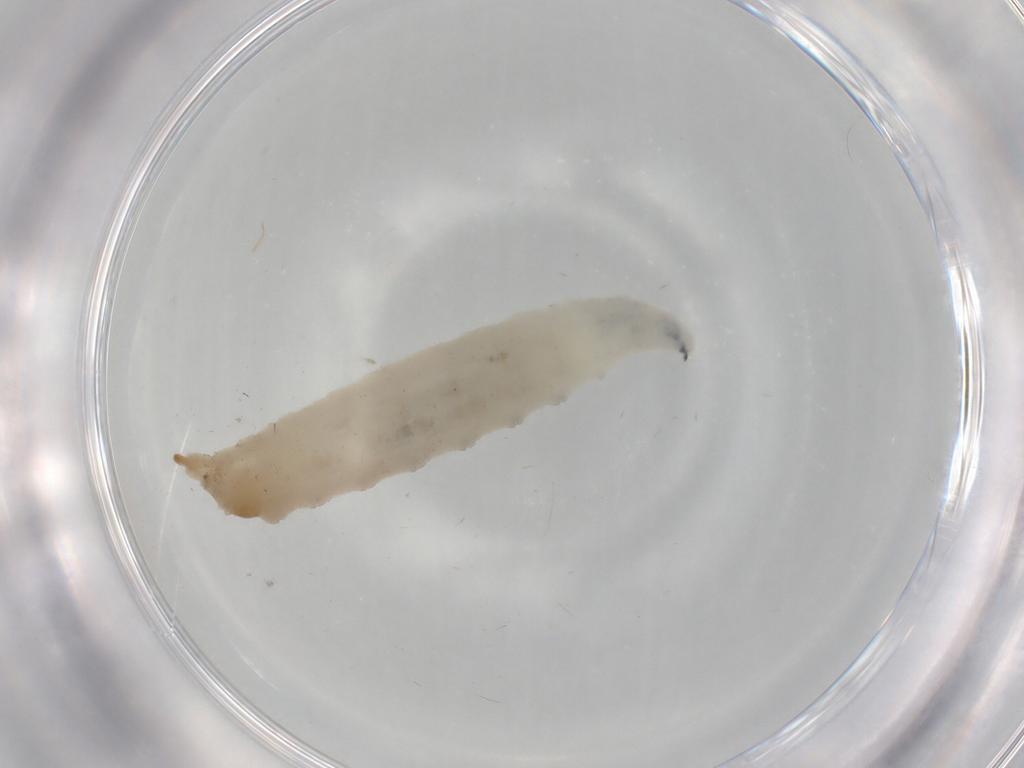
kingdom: Animalia
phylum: Arthropoda
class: Insecta
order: Diptera
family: Drosophilidae
